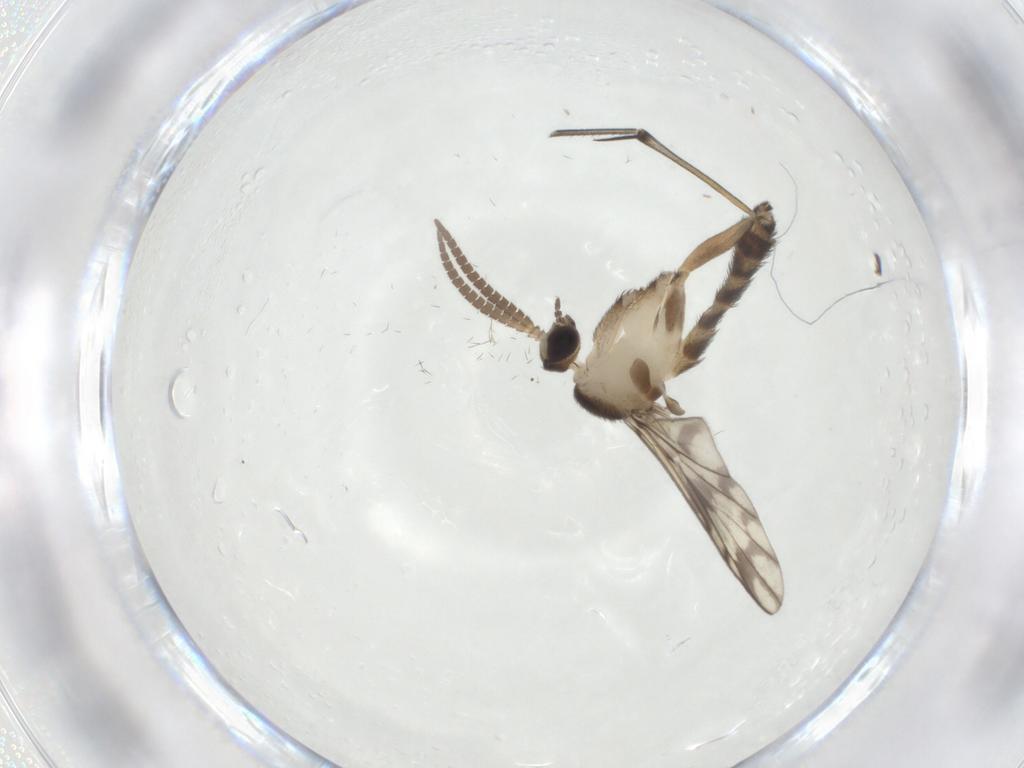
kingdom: Animalia
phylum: Arthropoda
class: Insecta
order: Diptera
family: Keroplatidae
